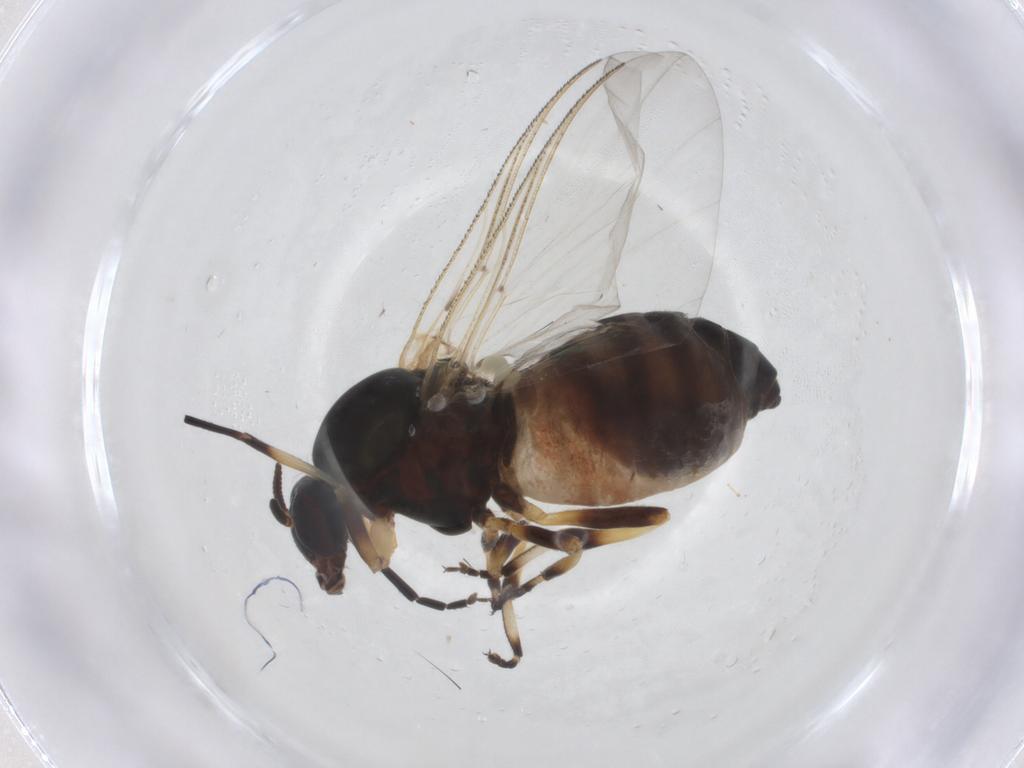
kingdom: Animalia
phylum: Arthropoda
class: Insecta
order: Diptera
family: Simuliidae
